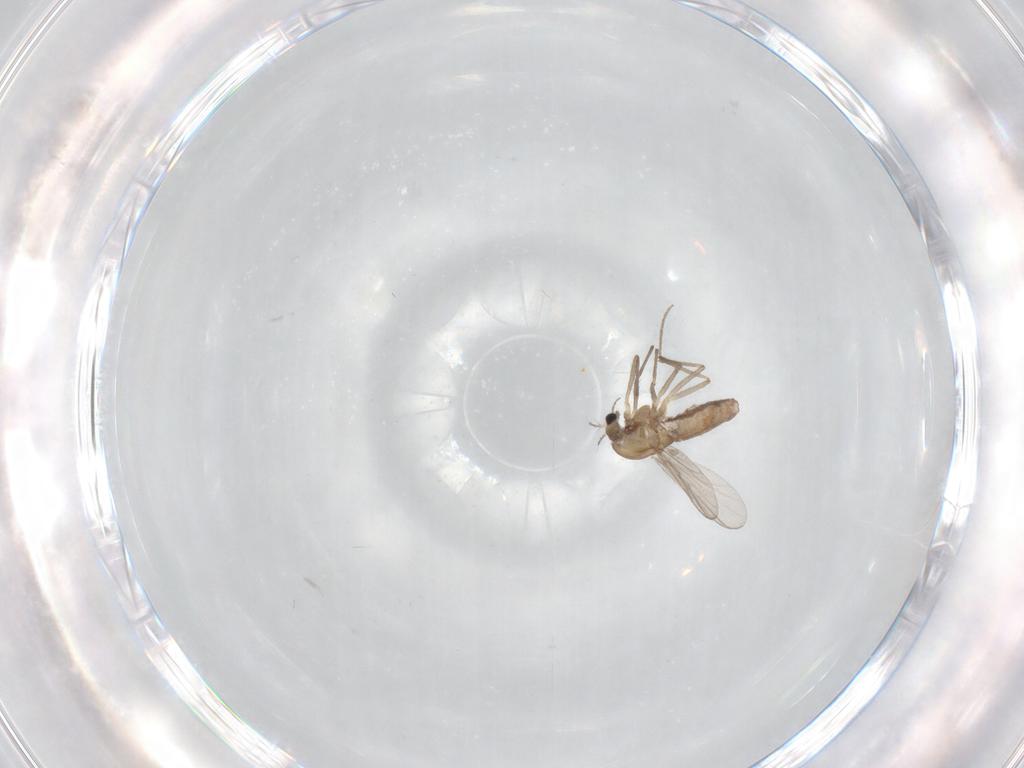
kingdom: Animalia
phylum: Arthropoda
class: Insecta
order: Diptera
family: Chironomidae
